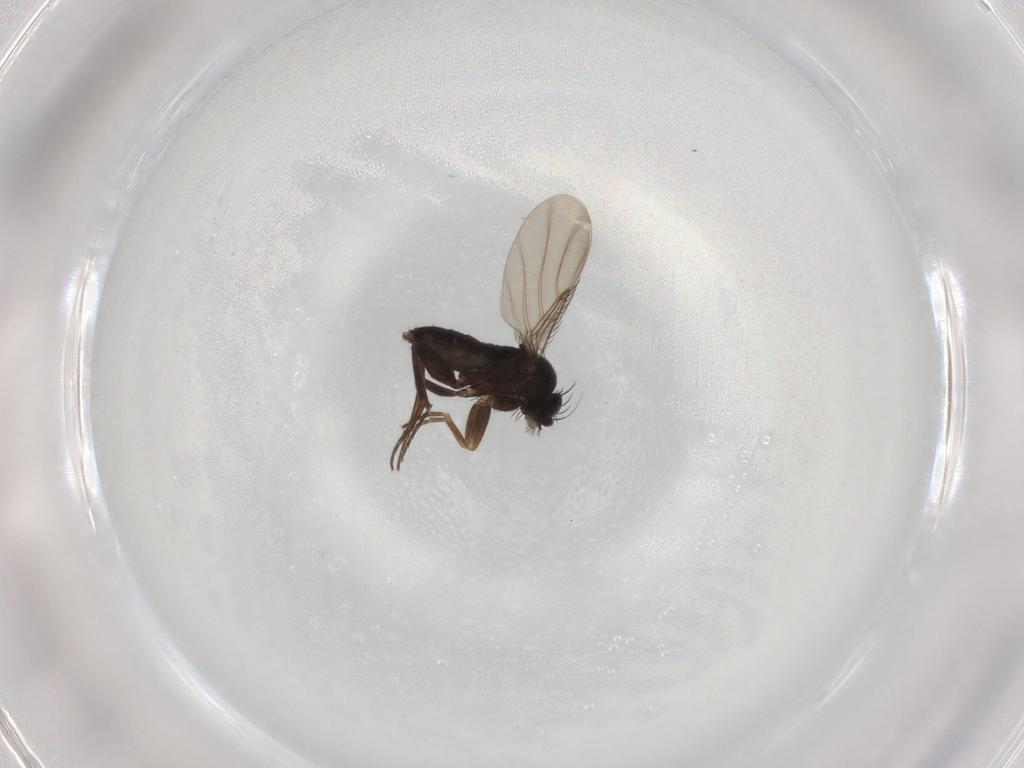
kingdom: Animalia
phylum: Arthropoda
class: Insecta
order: Diptera
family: Phoridae
